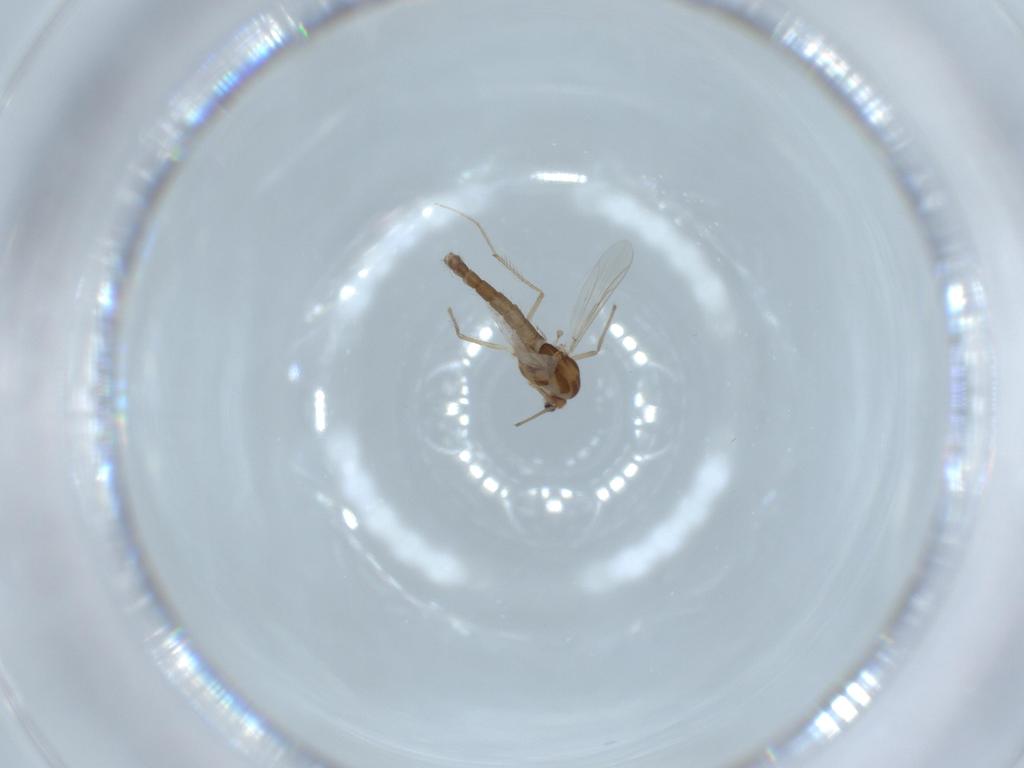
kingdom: Animalia
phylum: Arthropoda
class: Insecta
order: Diptera
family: Chironomidae
